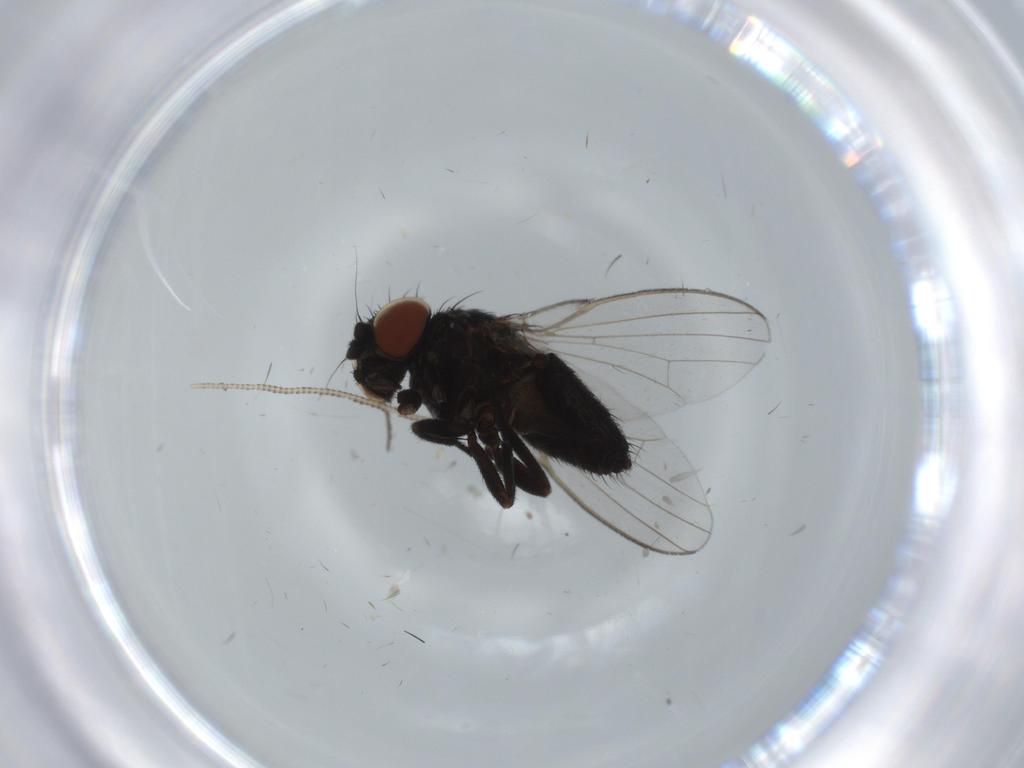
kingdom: Animalia
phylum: Arthropoda
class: Insecta
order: Diptera
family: Milichiidae
